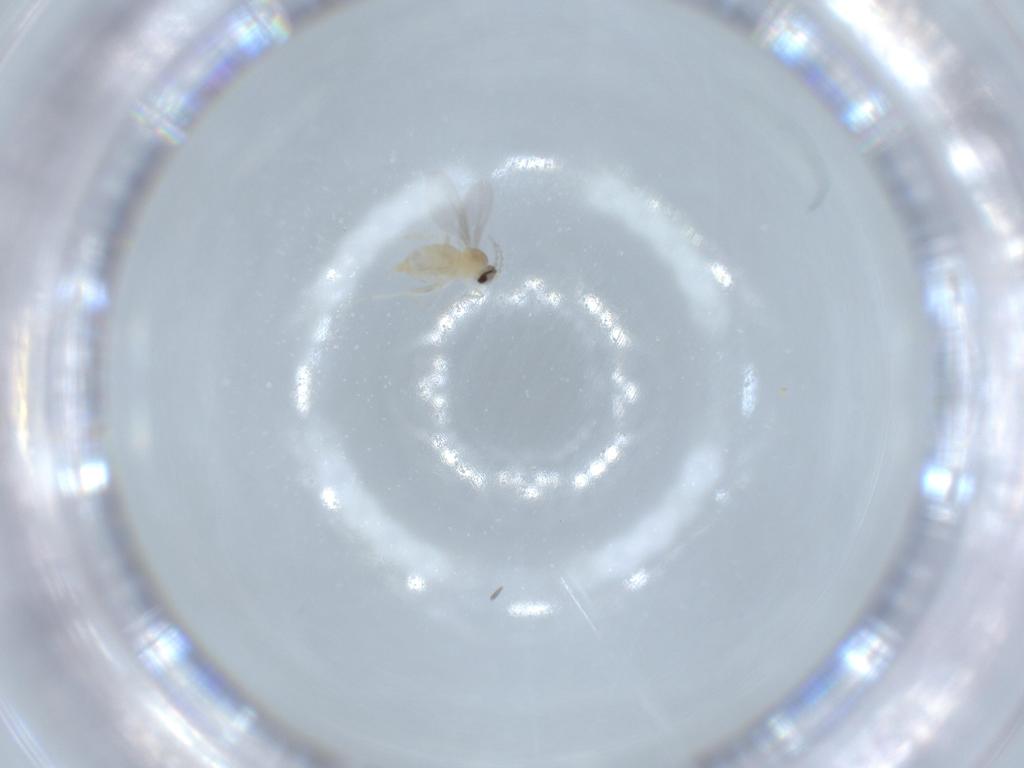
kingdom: Animalia
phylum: Arthropoda
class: Insecta
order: Diptera
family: Cecidomyiidae
